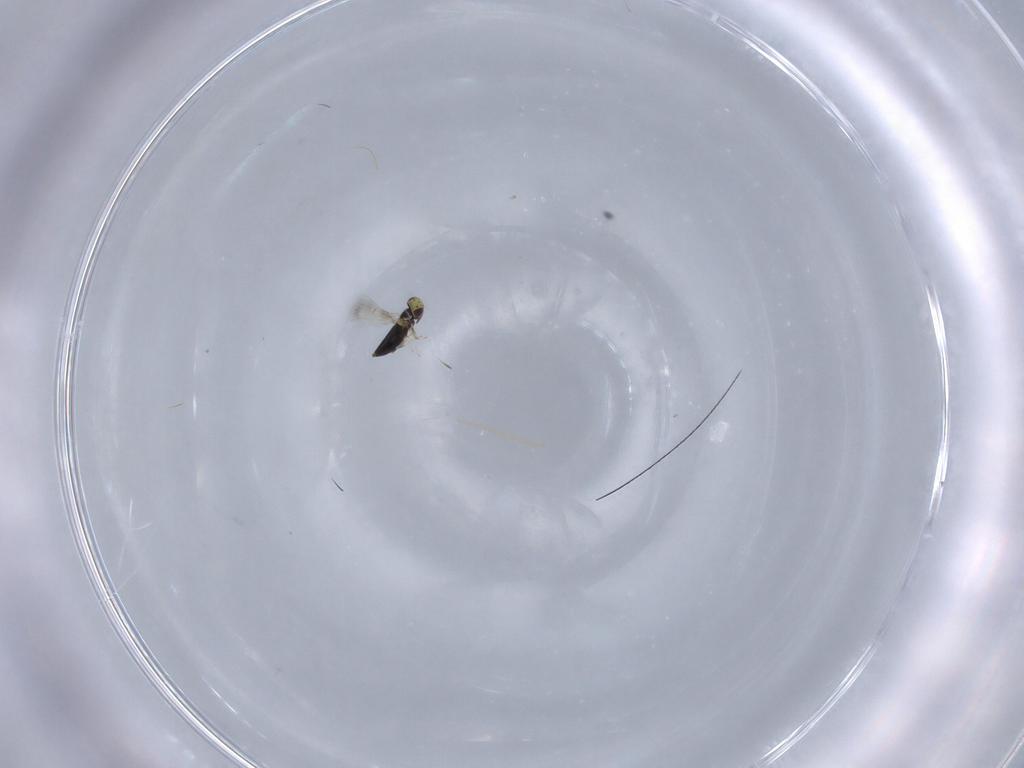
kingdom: Animalia
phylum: Arthropoda
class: Insecta
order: Hymenoptera
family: Signiphoridae
